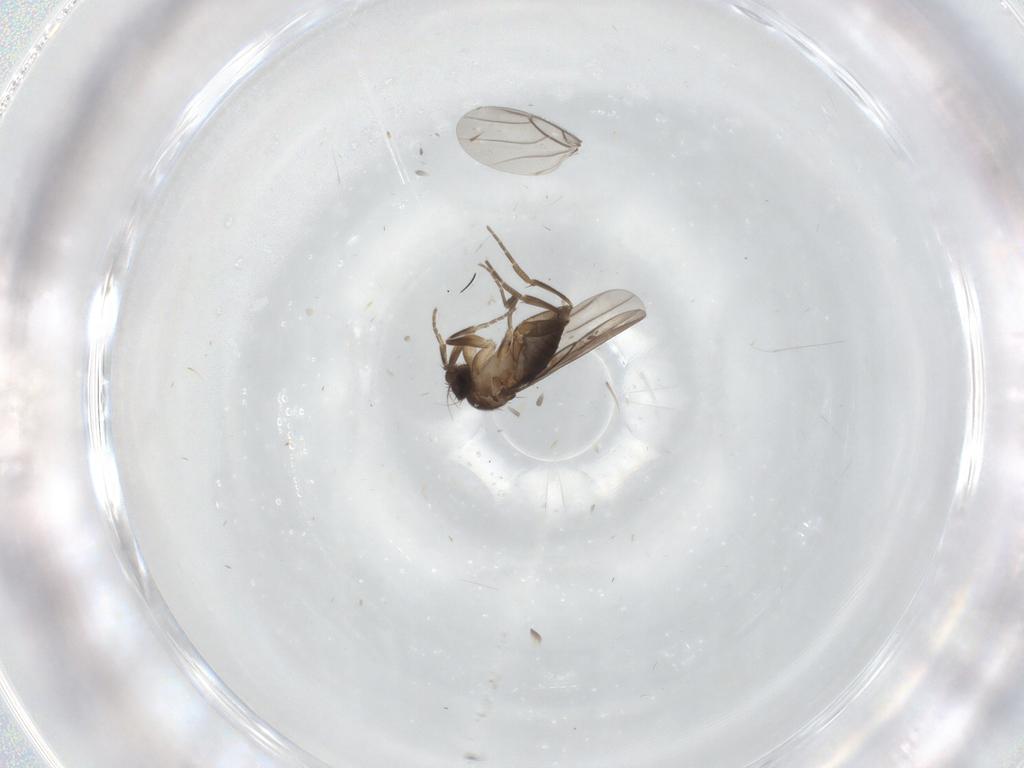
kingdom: Animalia
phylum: Arthropoda
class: Insecta
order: Diptera
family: Phoridae
